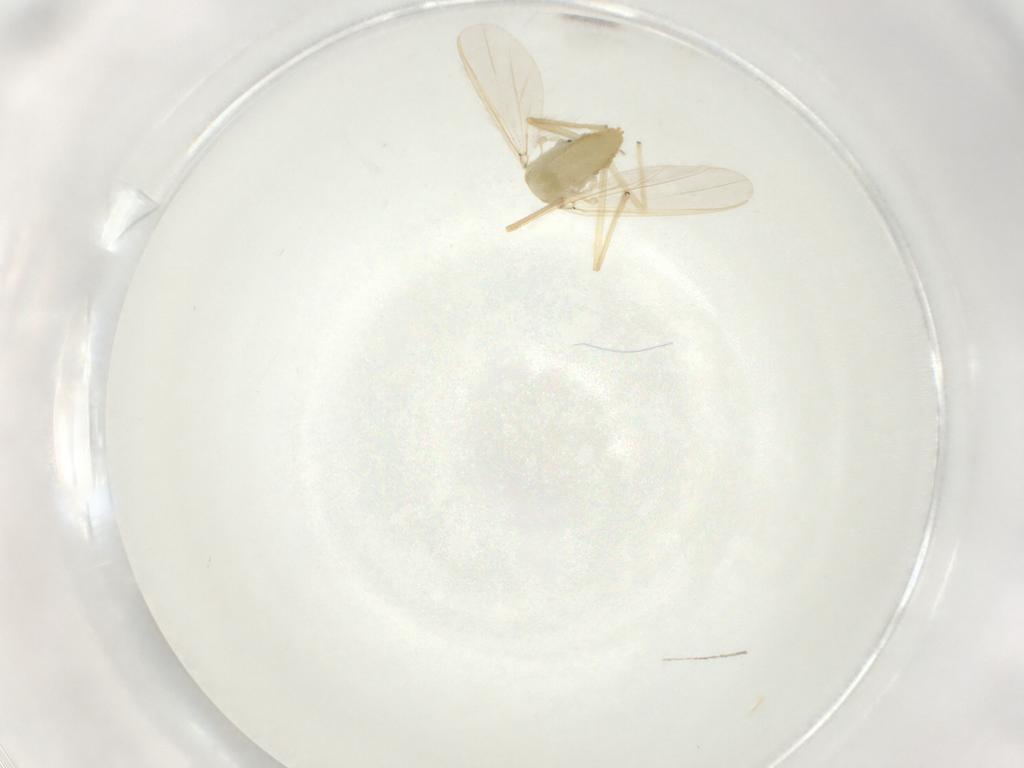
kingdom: Animalia
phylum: Arthropoda
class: Insecta
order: Diptera
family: Chironomidae
